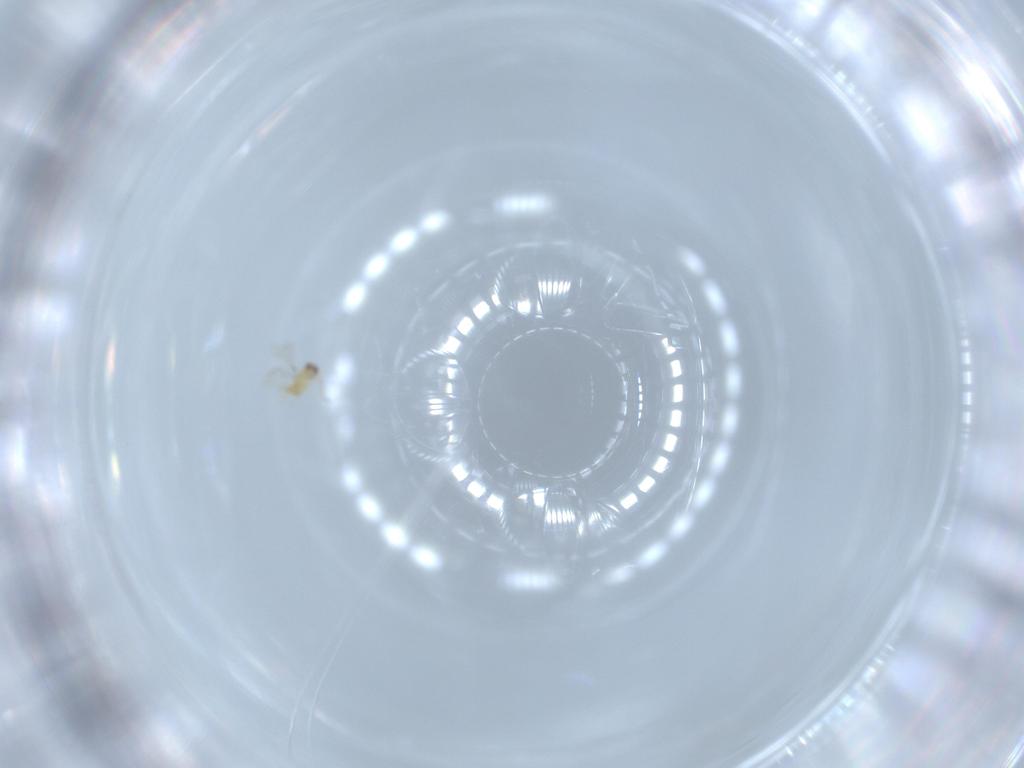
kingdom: Animalia
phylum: Arthropoda
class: Insecta
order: Hymenoptera
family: Mymaridae
